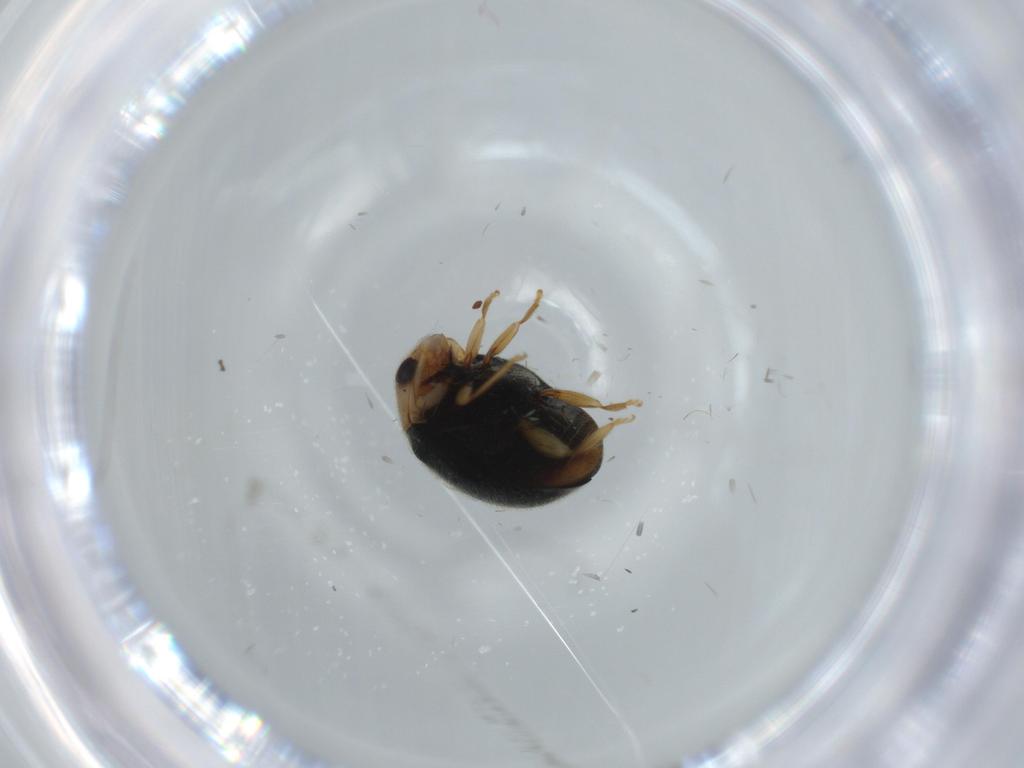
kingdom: Animalia
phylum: Arthropoda
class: Insecta
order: Coleoptera
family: Coccinellidae
